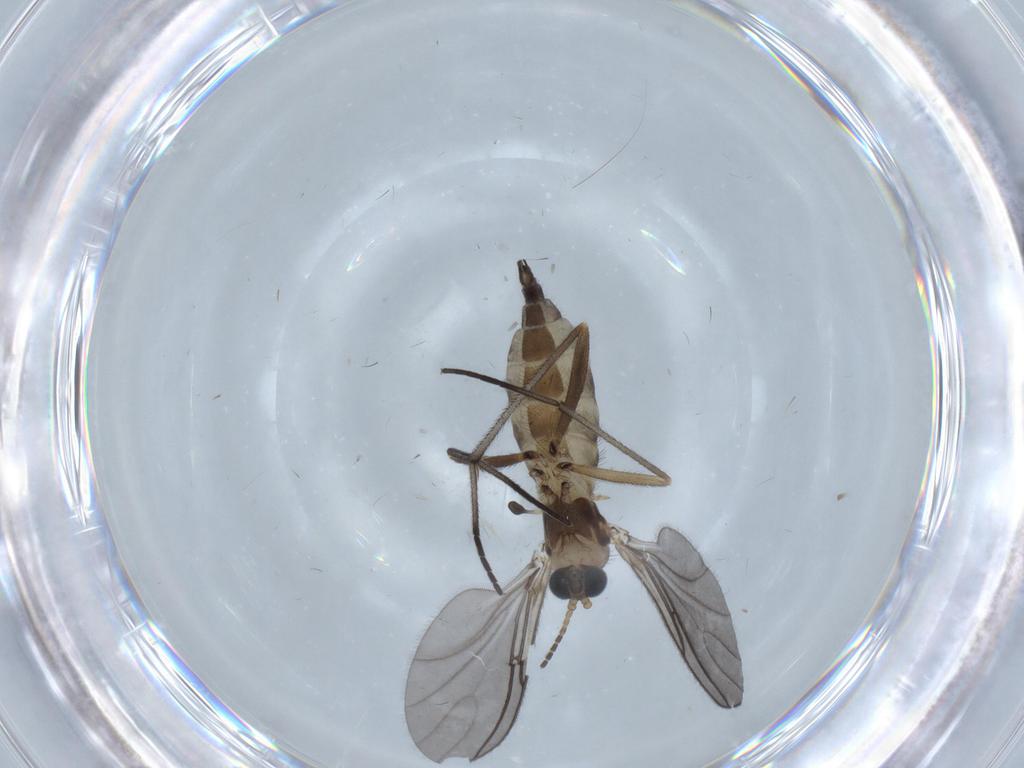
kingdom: Animalia
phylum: Arthropoda
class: Insecta
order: Diptera
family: Sciaridae
